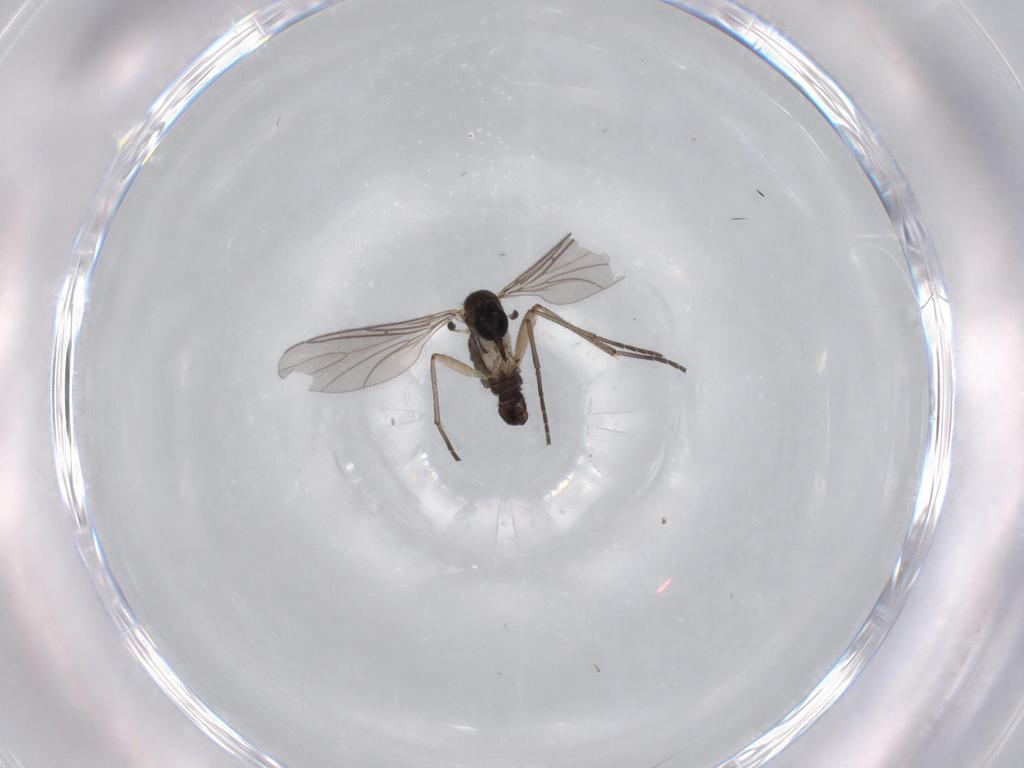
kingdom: Animalia
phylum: Arthropoda
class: Insecta
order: Diptera
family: Sciaridae
